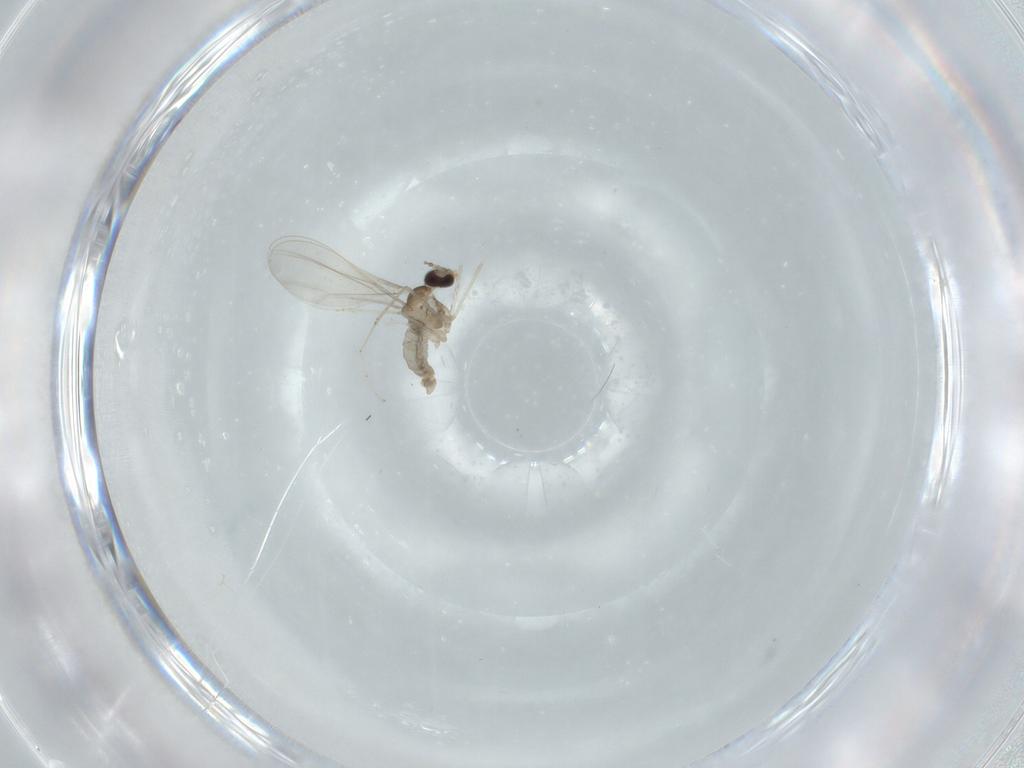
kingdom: Animalia
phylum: Arthropoda
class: Insecta
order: Diptera
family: Cecidomyiidae
